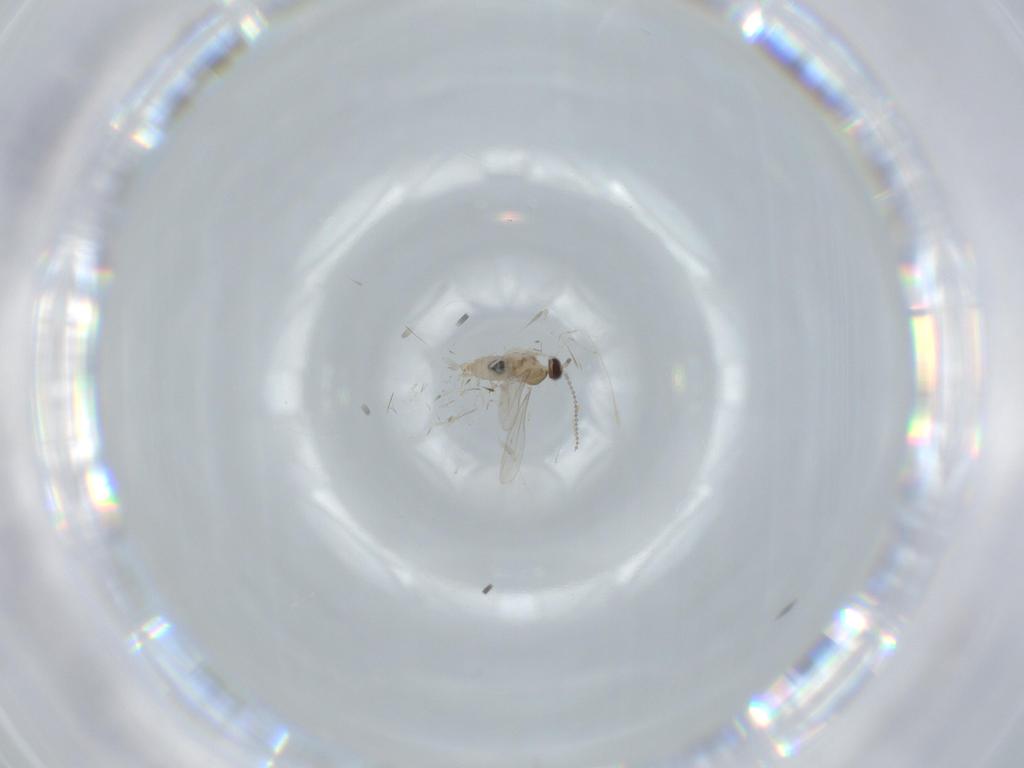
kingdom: Animalia
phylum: Arthropoda
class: Insecta
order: Diptera
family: Cecidomyiidae
